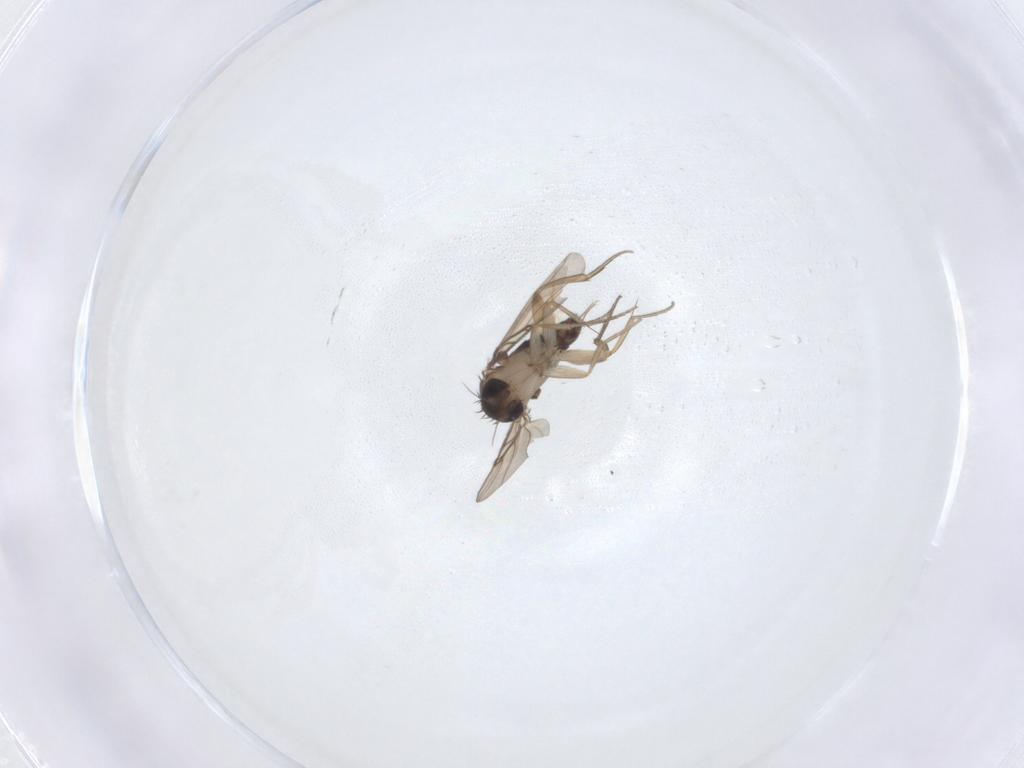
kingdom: Animalia
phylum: Arthropoda
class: Insecta
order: Diptera
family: Phoridae
